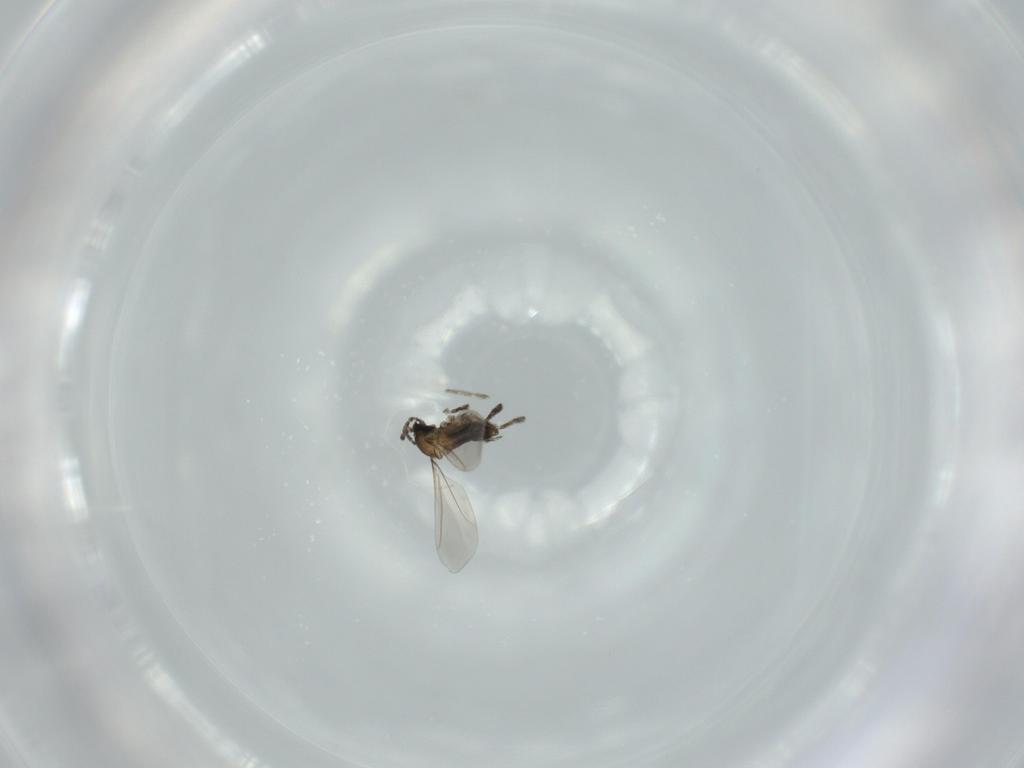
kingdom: Animalia
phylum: Arthropoda
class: Insecta
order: Diptera
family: Cecidomyiidae
